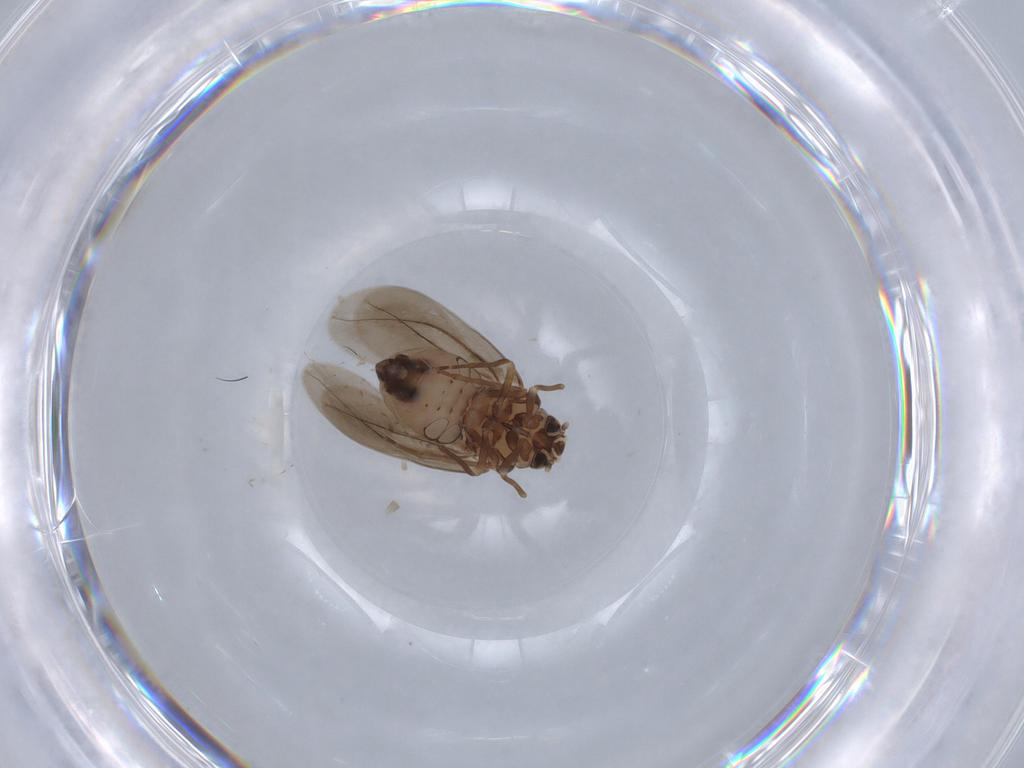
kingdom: Animalia
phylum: Arthropoda
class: Insecta
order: Hemiptera
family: Aleyrodidae
